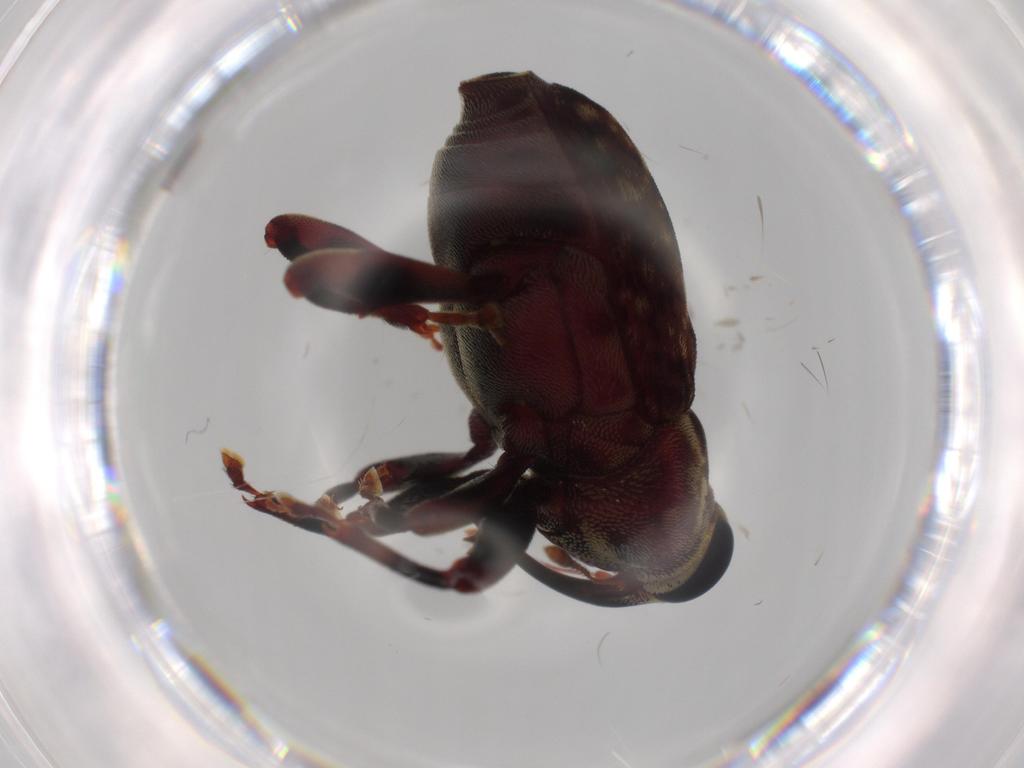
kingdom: Animalia
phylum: Arthropoda
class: Insecta
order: Coleoptera
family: Curculionidae
